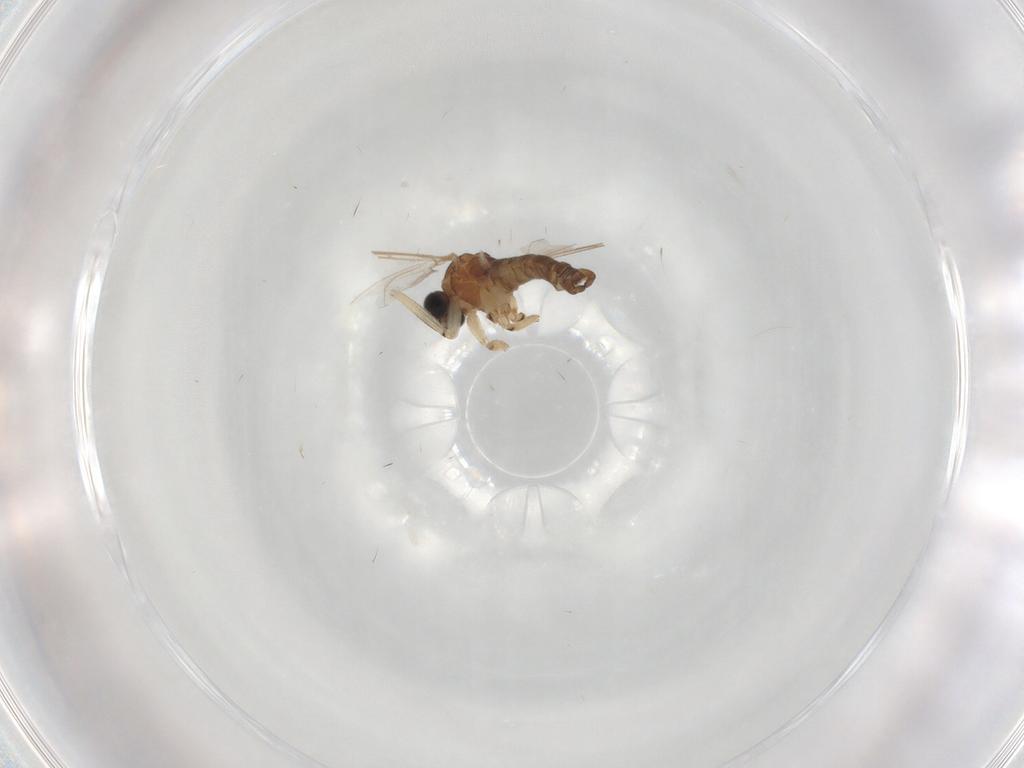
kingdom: Animalia
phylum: Arthropoda
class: Insecta
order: Diptera
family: Sciaridae
